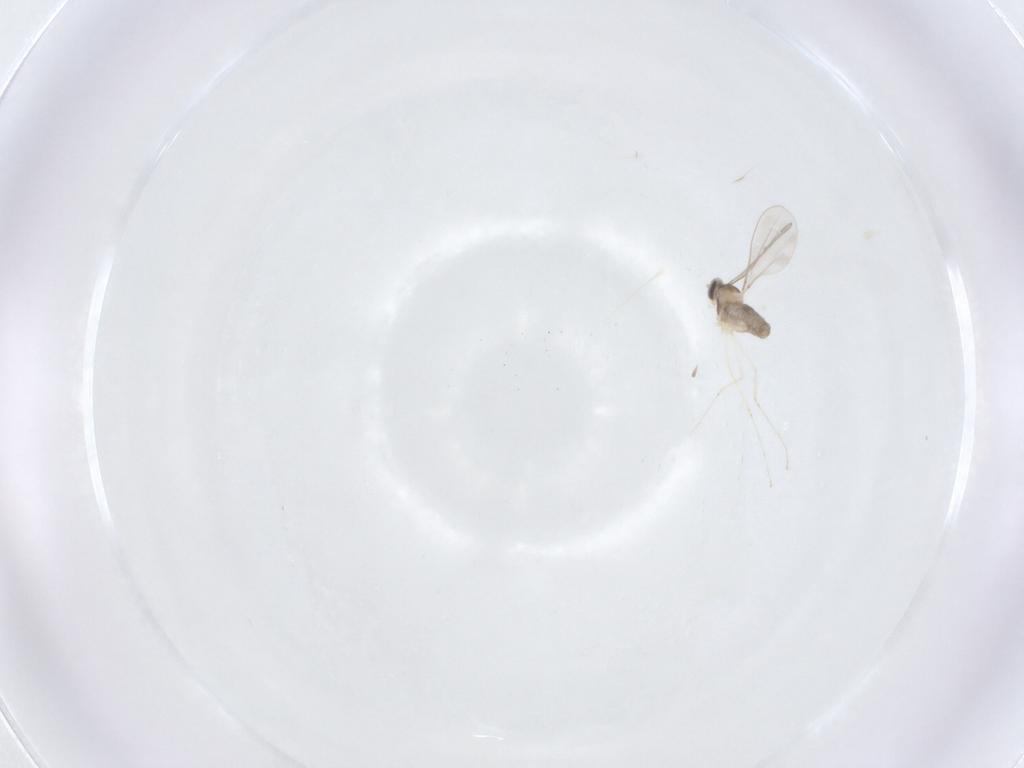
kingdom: Animalia
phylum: Arthropoda
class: Insecta
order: Diptera
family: Cecidomyiidae
